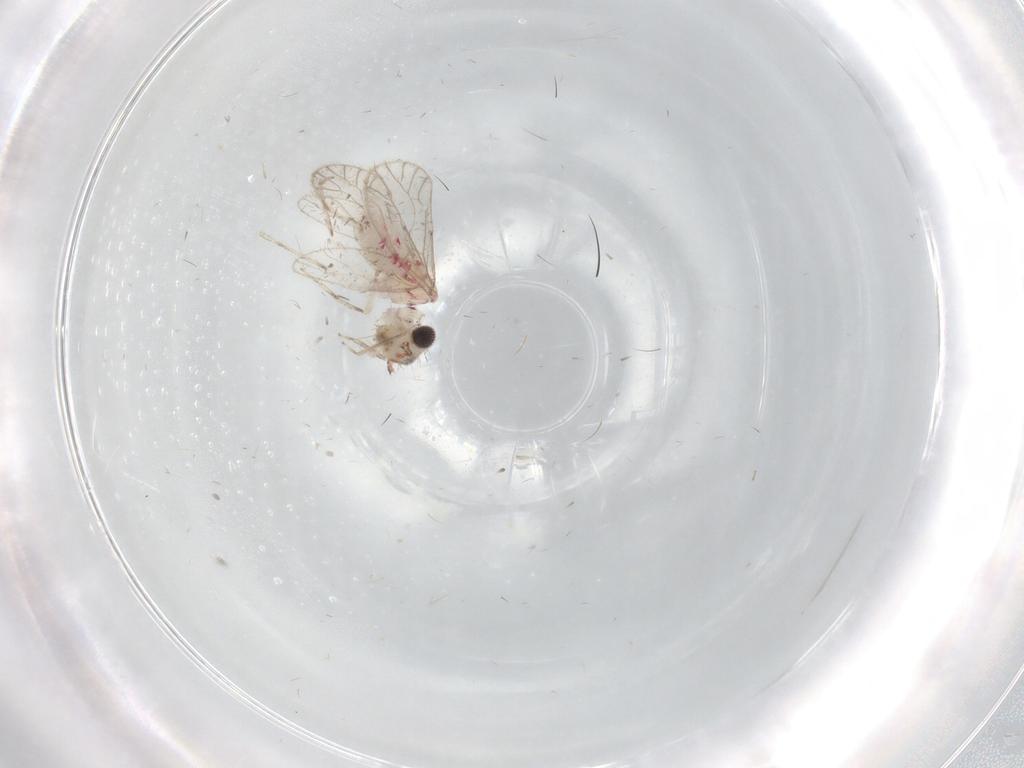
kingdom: Animalia
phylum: Arthropoda
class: Insecta
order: Psocodea
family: Caeciliusidae
